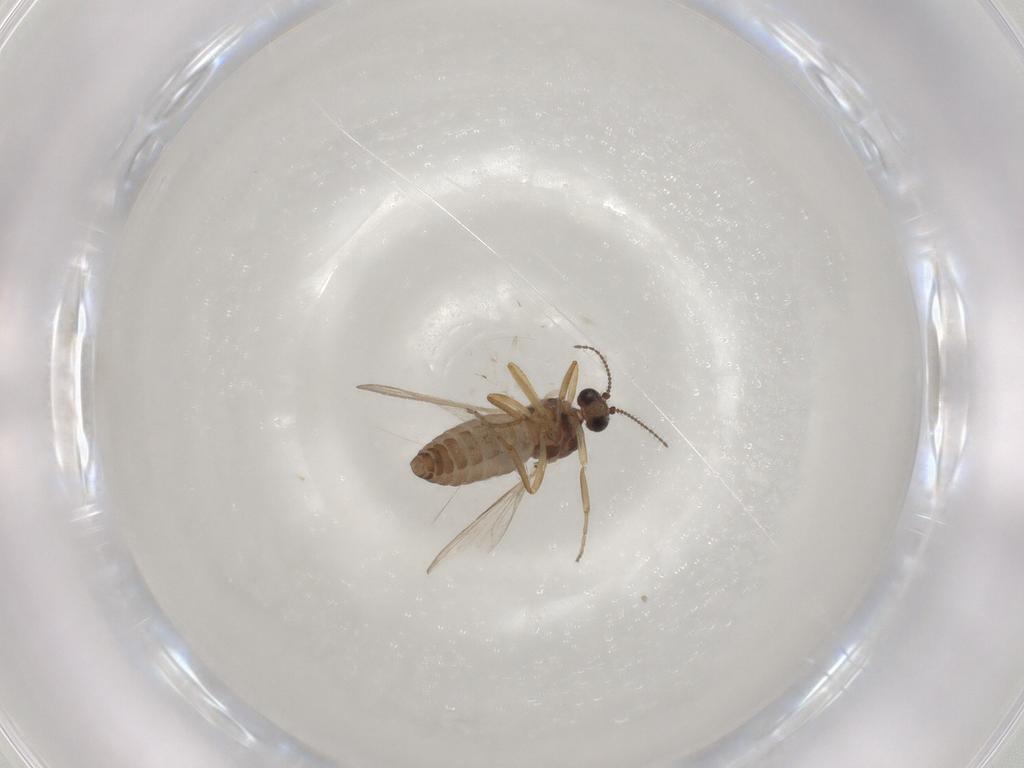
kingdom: Animalia
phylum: Arthropoda
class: Insecta
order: Diptera
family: Ceratopogonidae
